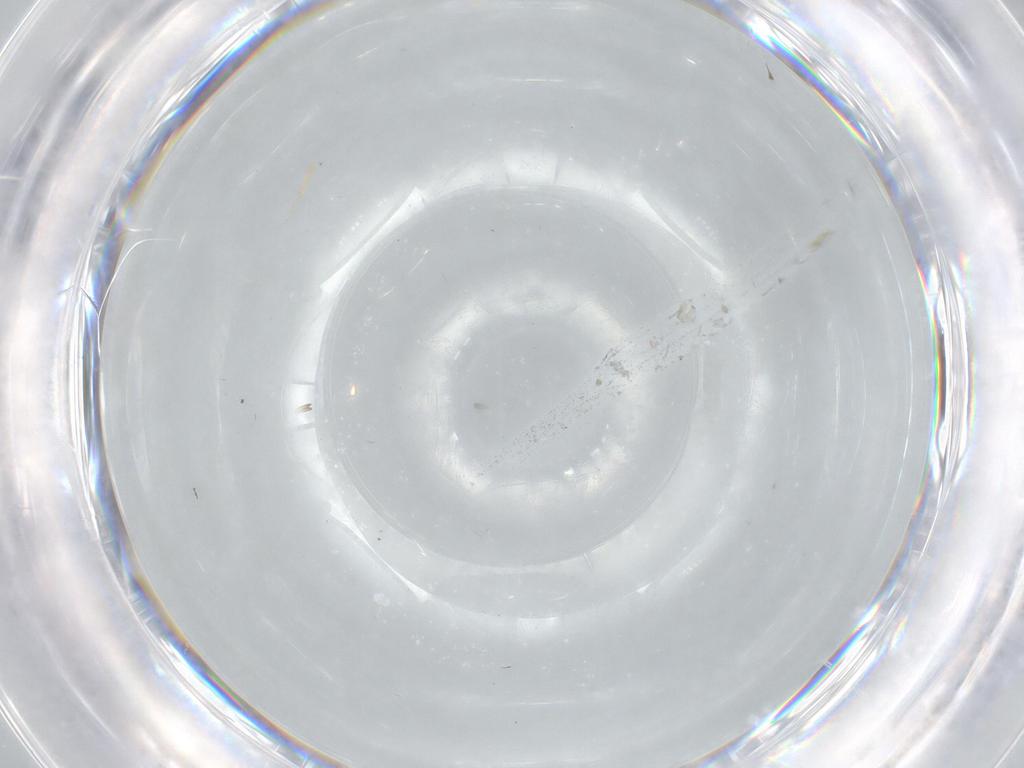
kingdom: Animalia
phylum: Arthropoda
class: Insecta
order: Diptera
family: Cecidomyiidae
